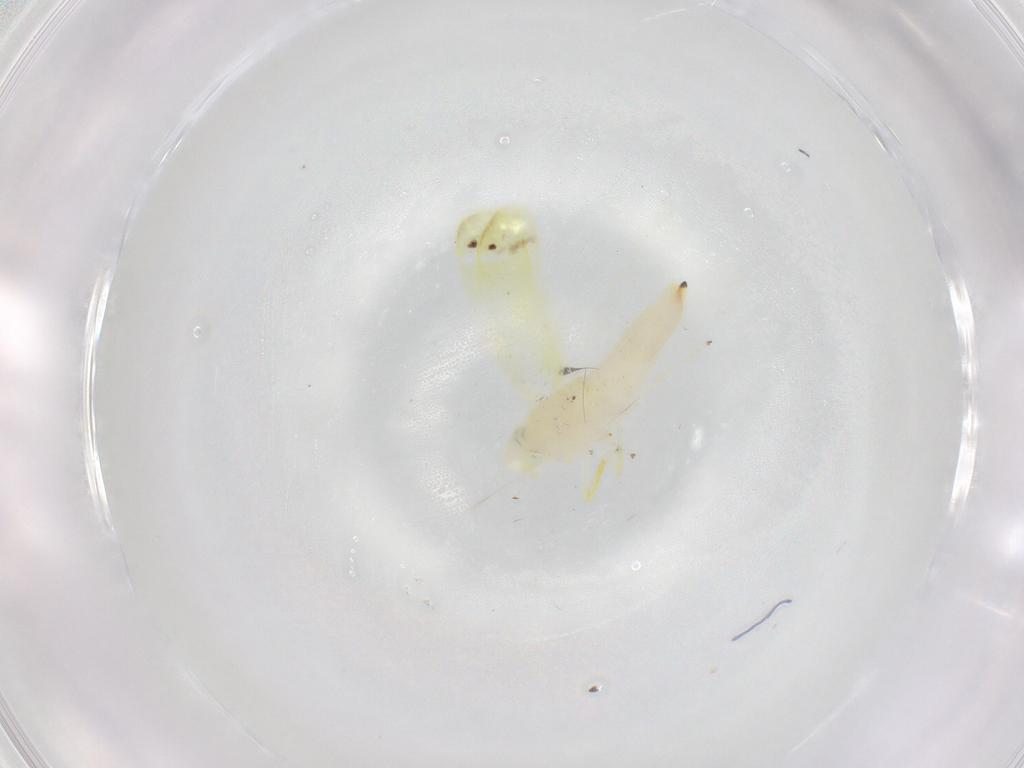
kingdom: Animalia
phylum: Arthropoda
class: Insecta
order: Hemiptera
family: Cicadellidae
